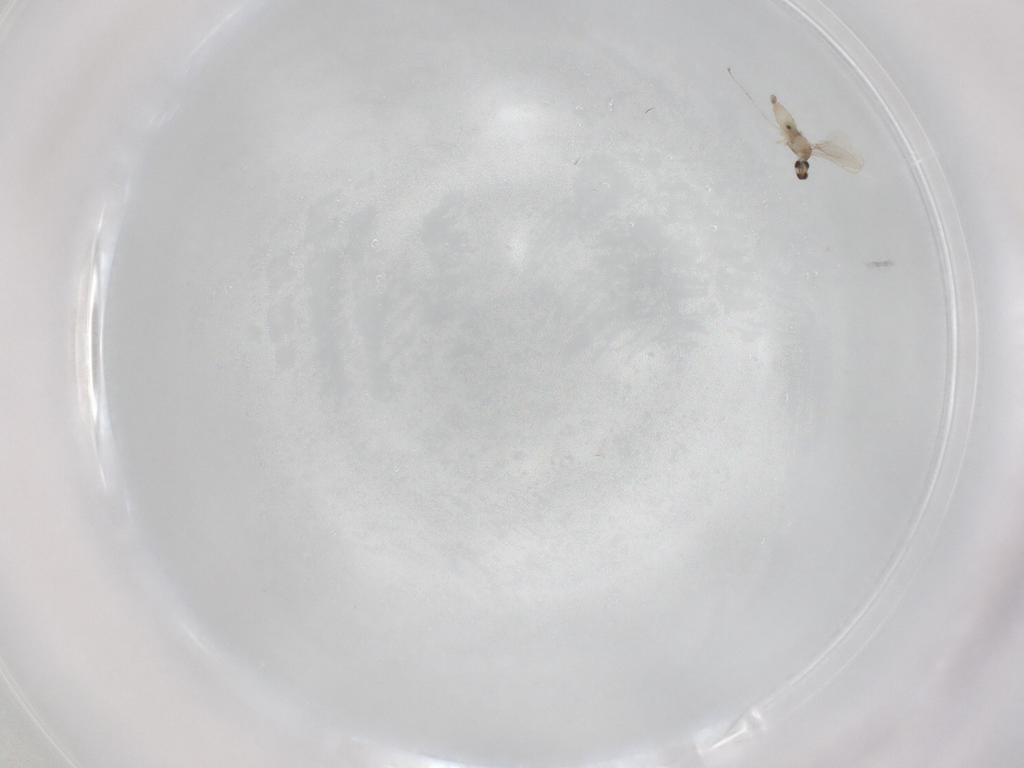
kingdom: Animalia
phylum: Arthropoda
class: Insecta
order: Diptera
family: Cecidomyiidae
